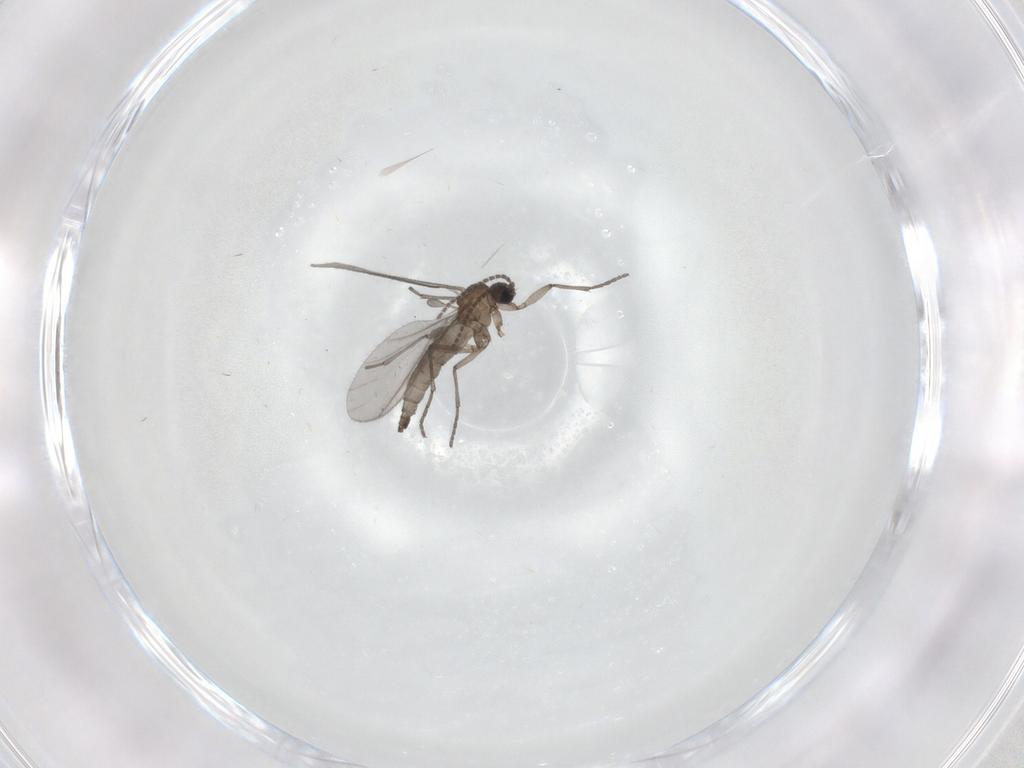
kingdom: Animalia
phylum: Arthropoda
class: Insecta
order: Diptera
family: Sciaridae
